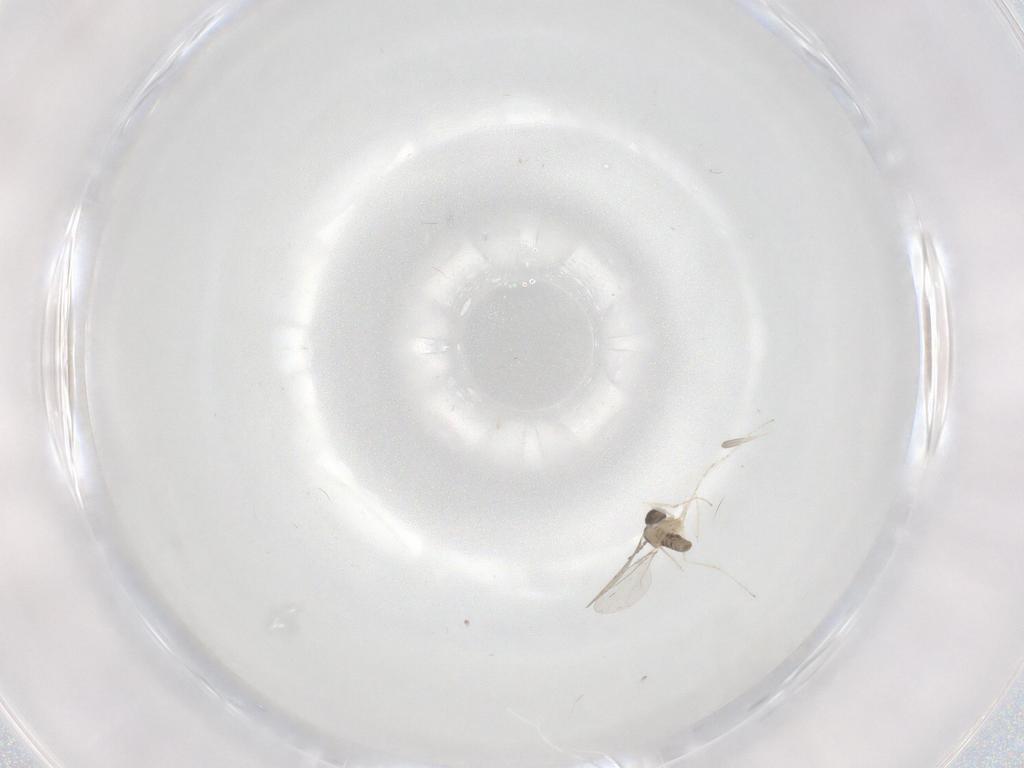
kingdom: Animalia
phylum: Arthropoda
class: Insecta
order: Diptera
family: Cecidomyiidae
